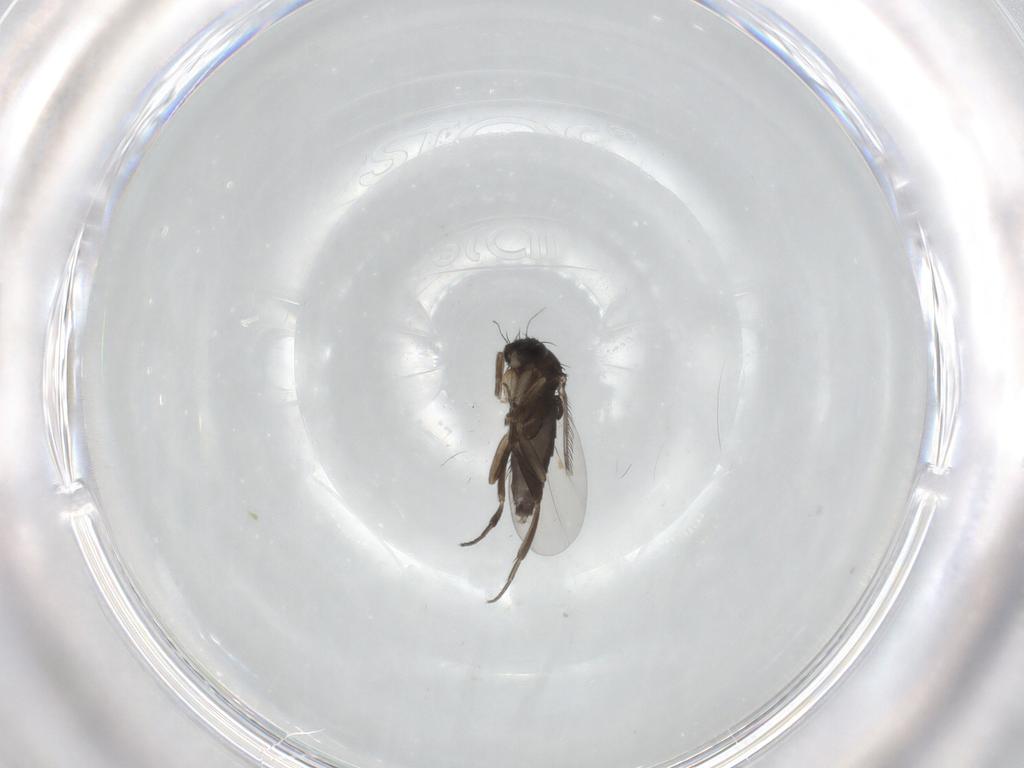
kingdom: Animalia
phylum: Arthropoda
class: Insecta
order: Diptera
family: Phoridae
